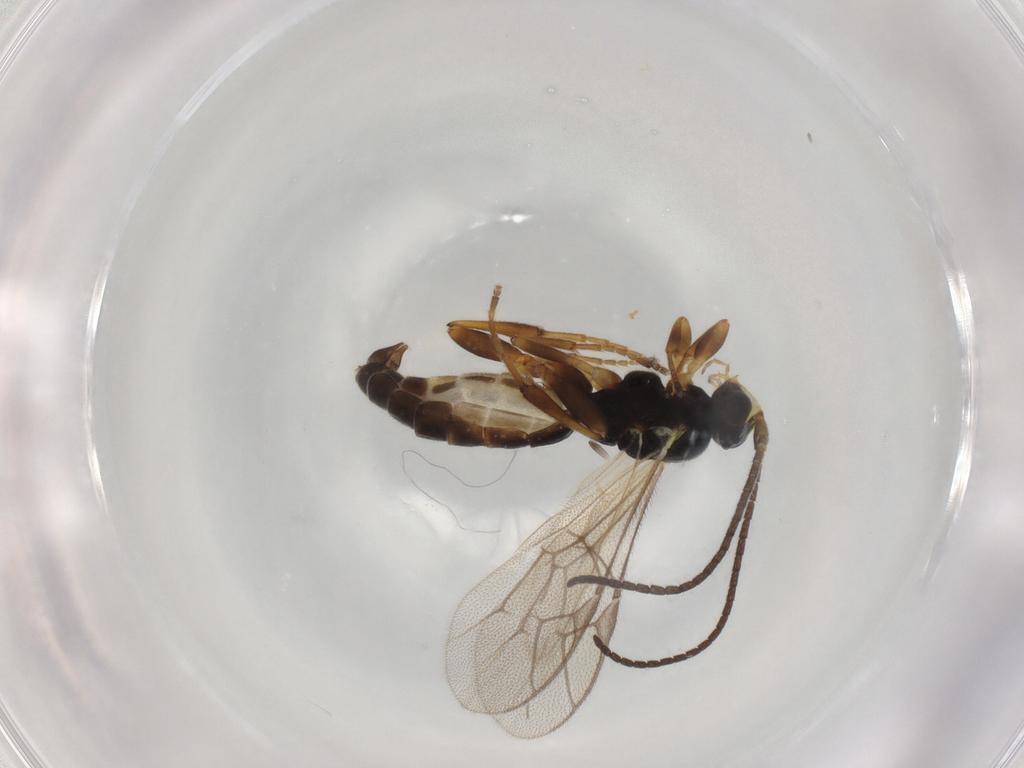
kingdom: Animalia
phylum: Arthropoda
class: Insecta
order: Hymenoptera
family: Ichneumonidae
